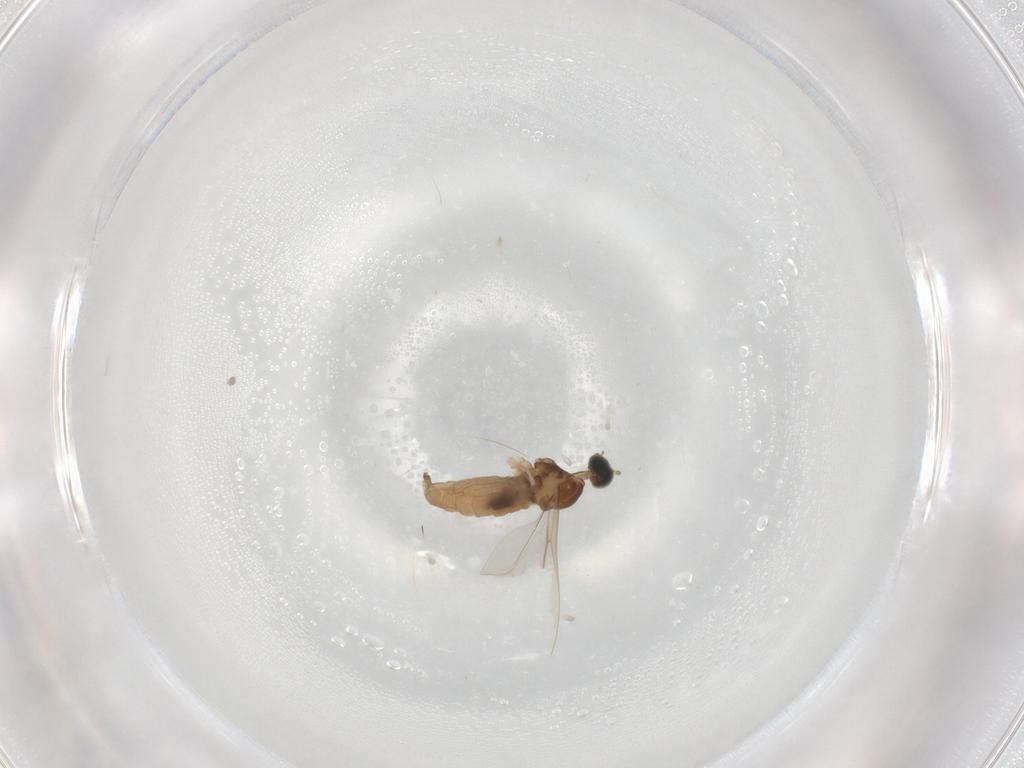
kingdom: Animalia
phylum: Arthropoda
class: Insecta
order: Diptera
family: Cecidomyiidae
